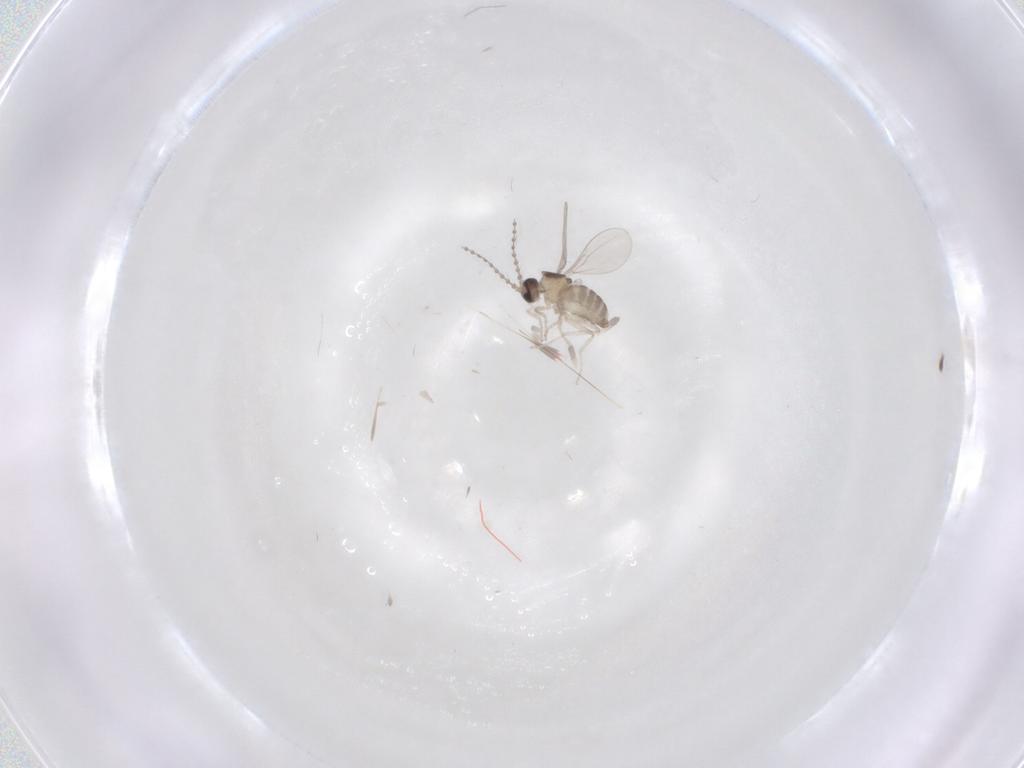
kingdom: Animalia
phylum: Arthropoda
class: Insecta
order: Diptera
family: Cecidomyiidae
